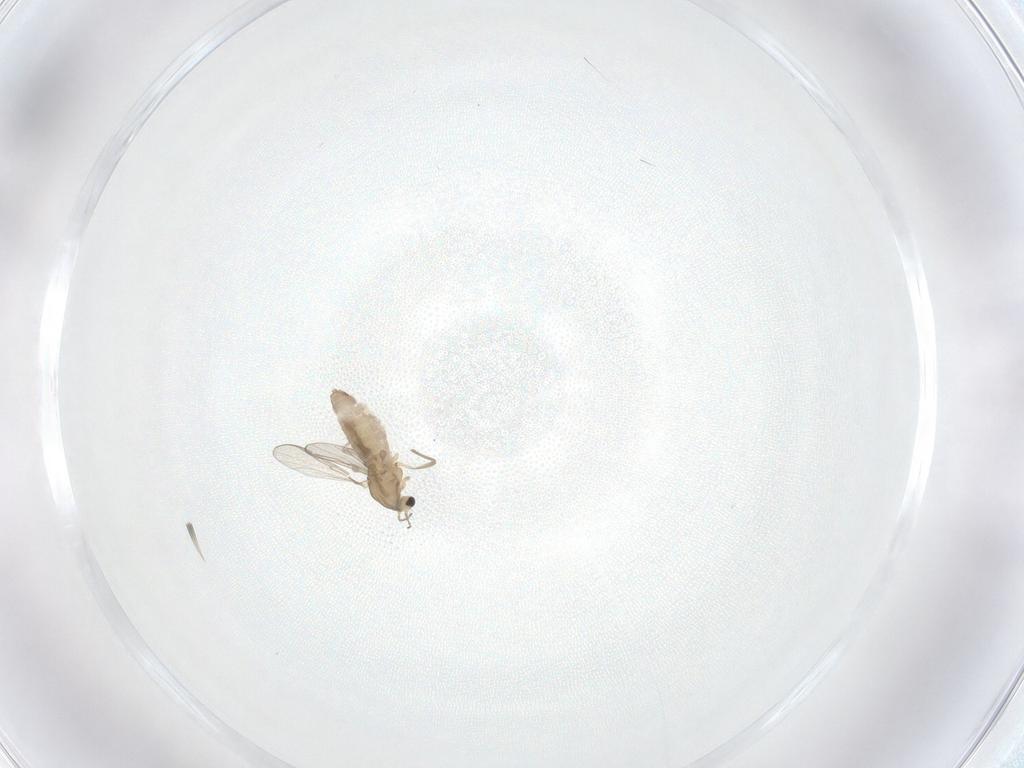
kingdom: Animalia
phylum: Arthropoda
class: Insecta
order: Diptera
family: Chironomidae
